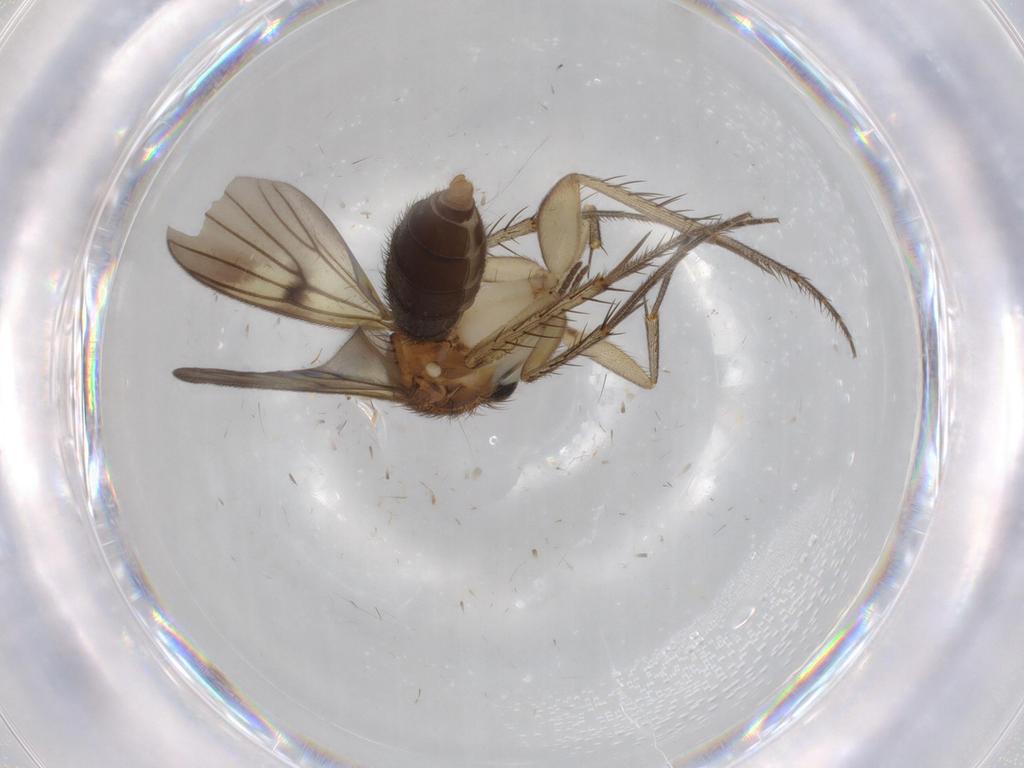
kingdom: Animalia
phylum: Arthropoda
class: Insecta
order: Diptera
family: Mycetophilidae
